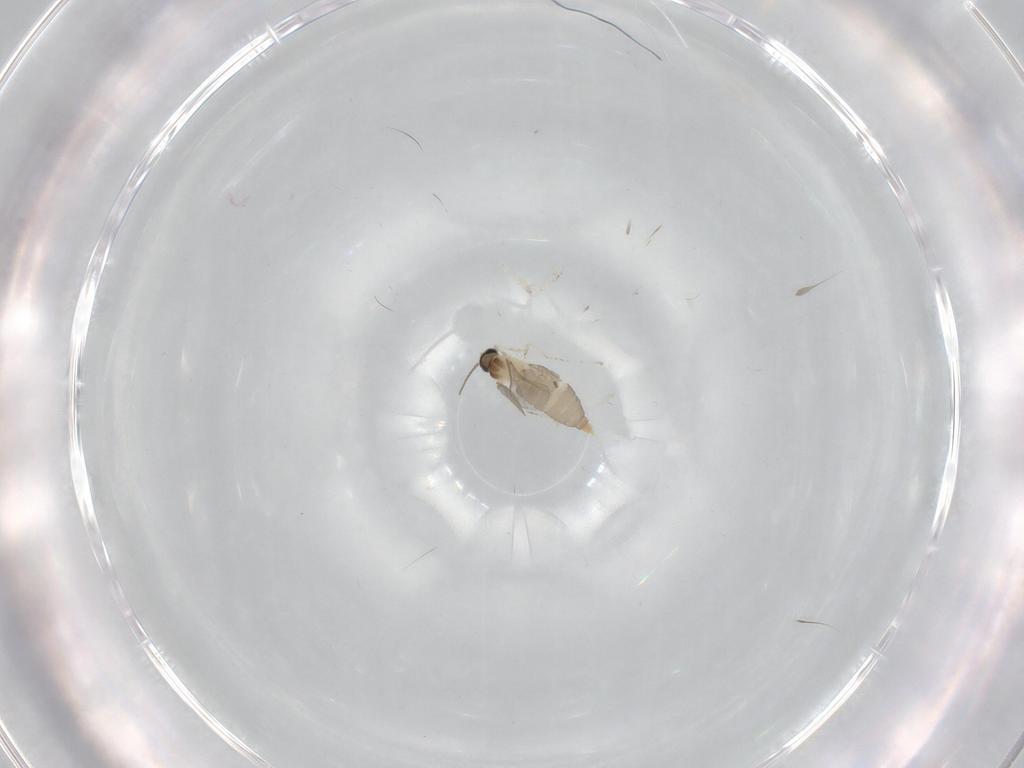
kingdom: Animalia
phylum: Arthropoda
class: Insecta
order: Diptera
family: Cecidomyiidae
